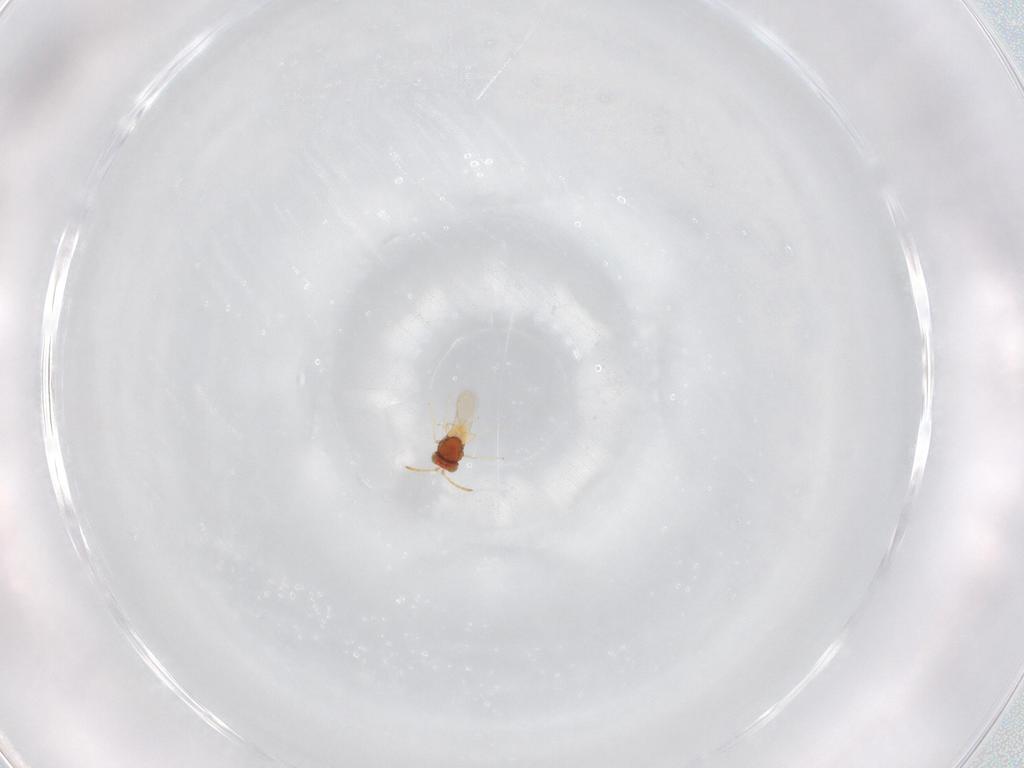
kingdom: Animalia
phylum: Arthropoda
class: Insecta
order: Hymenoptera
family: Aphelinidae
